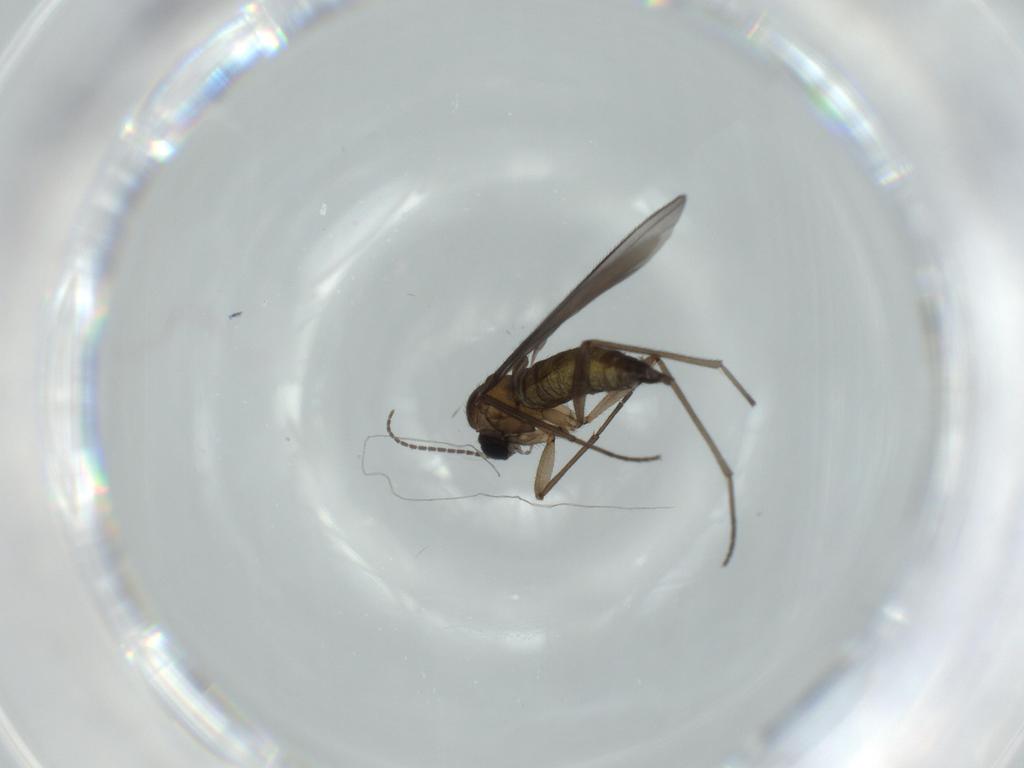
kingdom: Animalia
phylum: Arthropoda
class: Insecta
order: Diptera
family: Sciaridae
